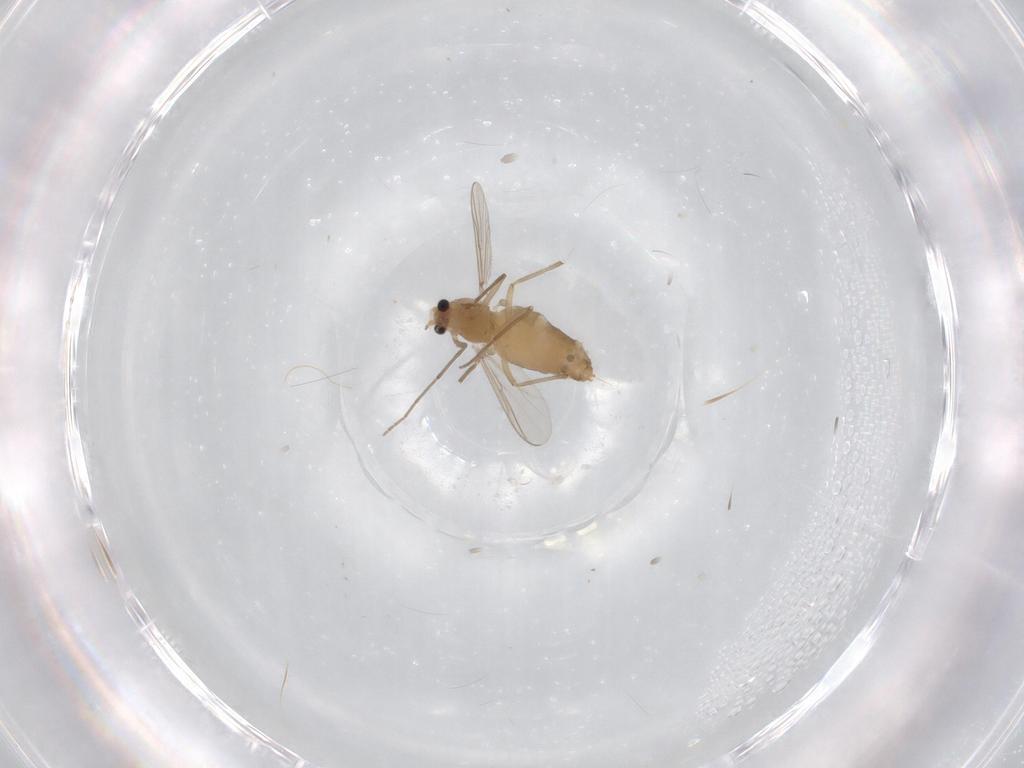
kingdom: Animalia
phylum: Arthropoda
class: Insecta
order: Diptera
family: Chironomidae
